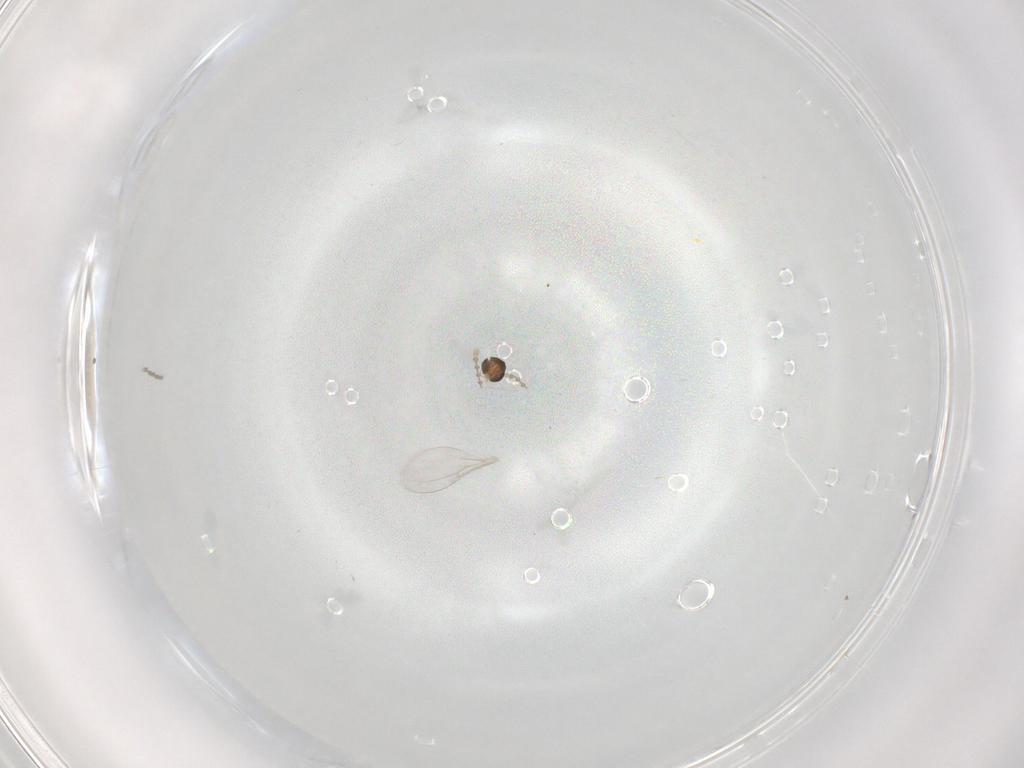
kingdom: Animalia
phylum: Arthropoda
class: Insecta
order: Diptera
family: Cecidomyiidae
